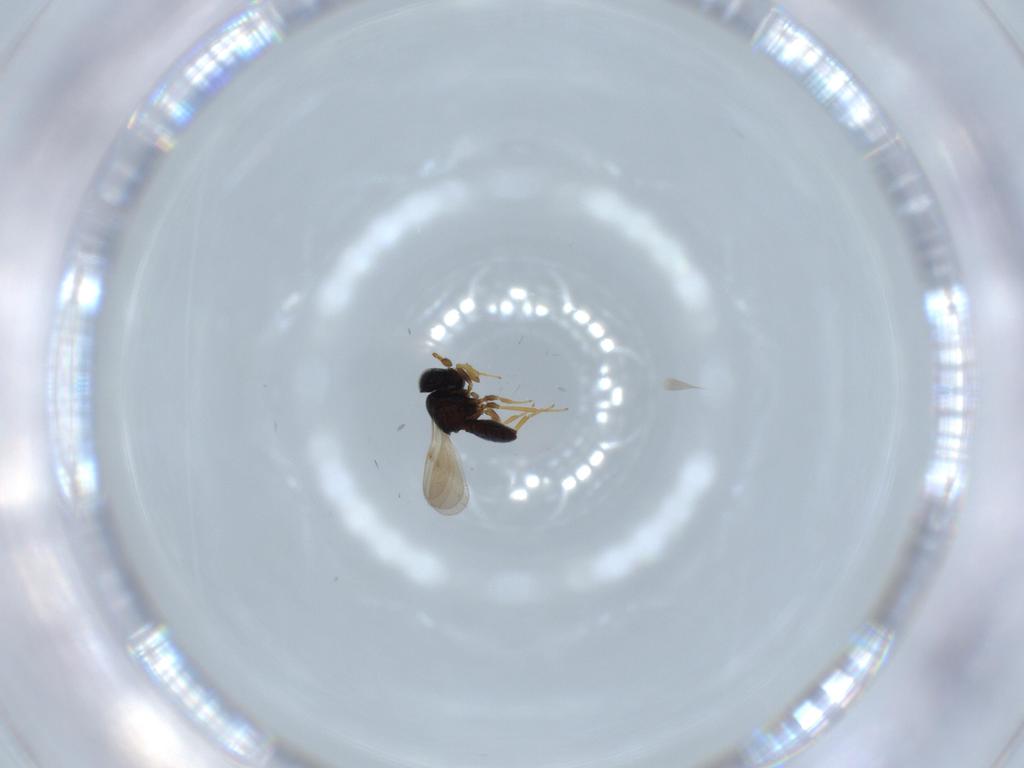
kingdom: Animalia
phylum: Arthropoda
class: Insecta
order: Hymenoptera
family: Scelionidae
